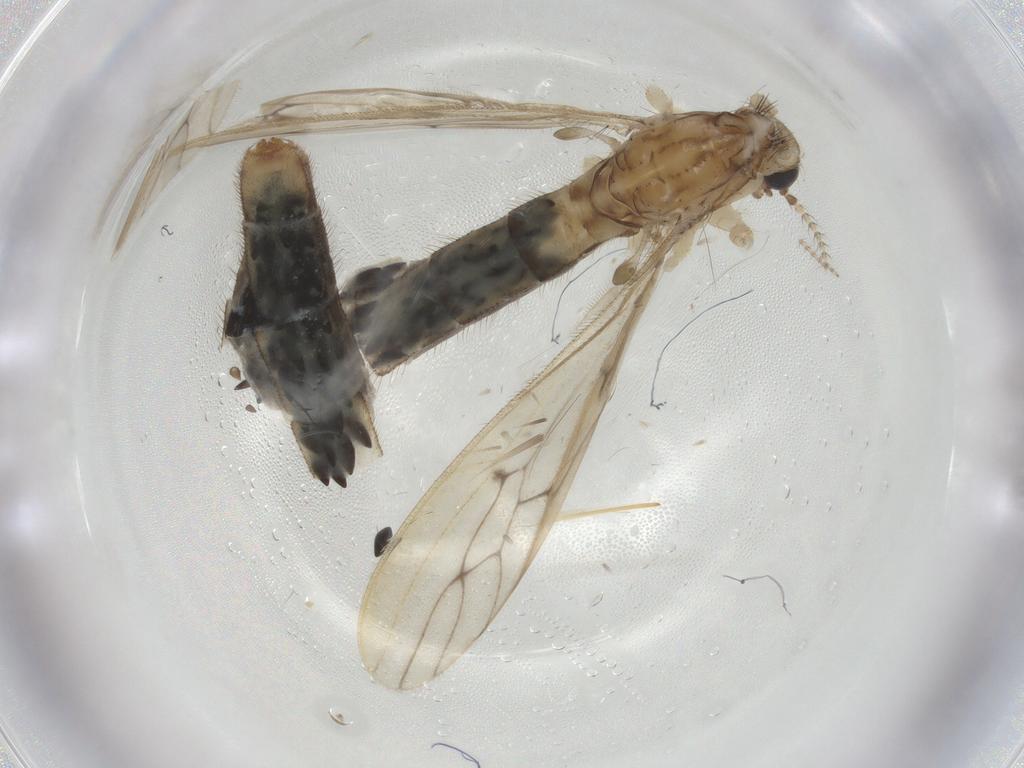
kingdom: Animalia
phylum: Arthropoda
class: Insecta
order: Diptera
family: Limoniidae
